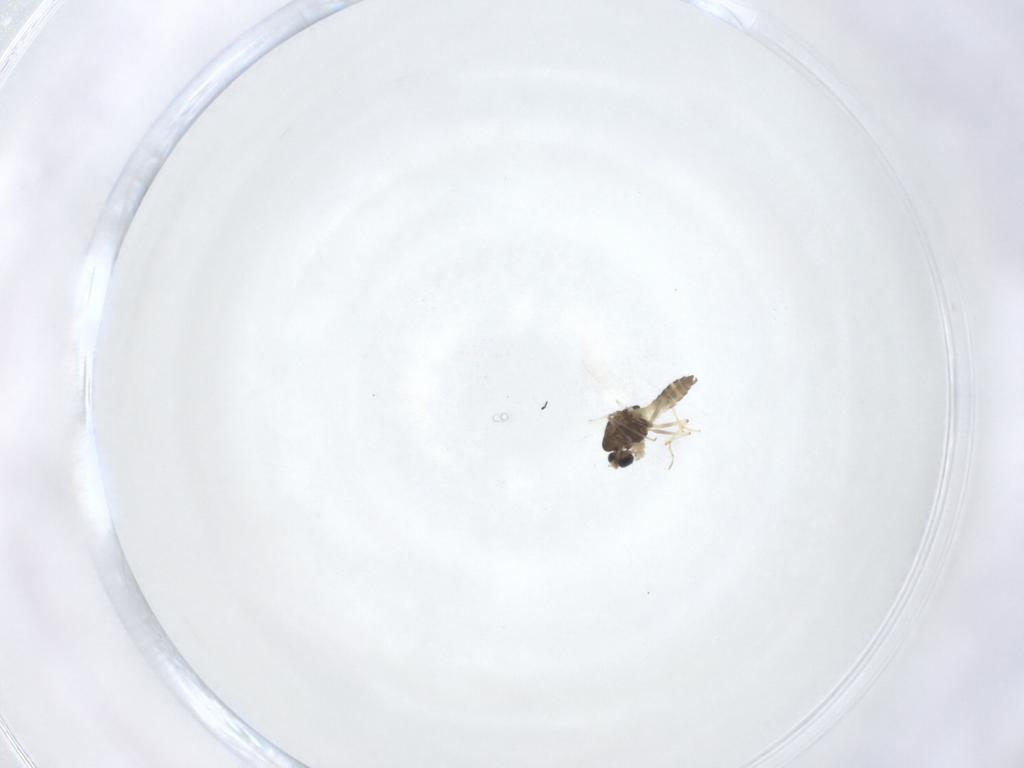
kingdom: Animalia
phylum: Arthropoda
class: Insecta
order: Diptera
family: Chironomidae
